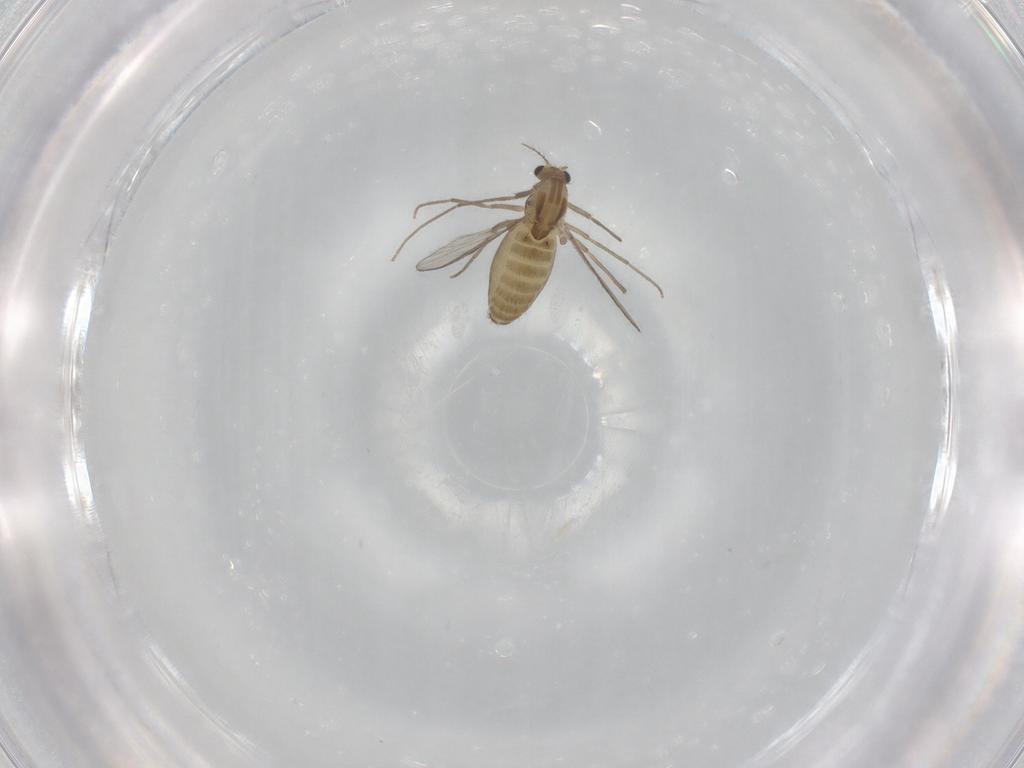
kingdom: Animalia
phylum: Arthropoda
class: Insecta
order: Diptera
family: Chironomidae
